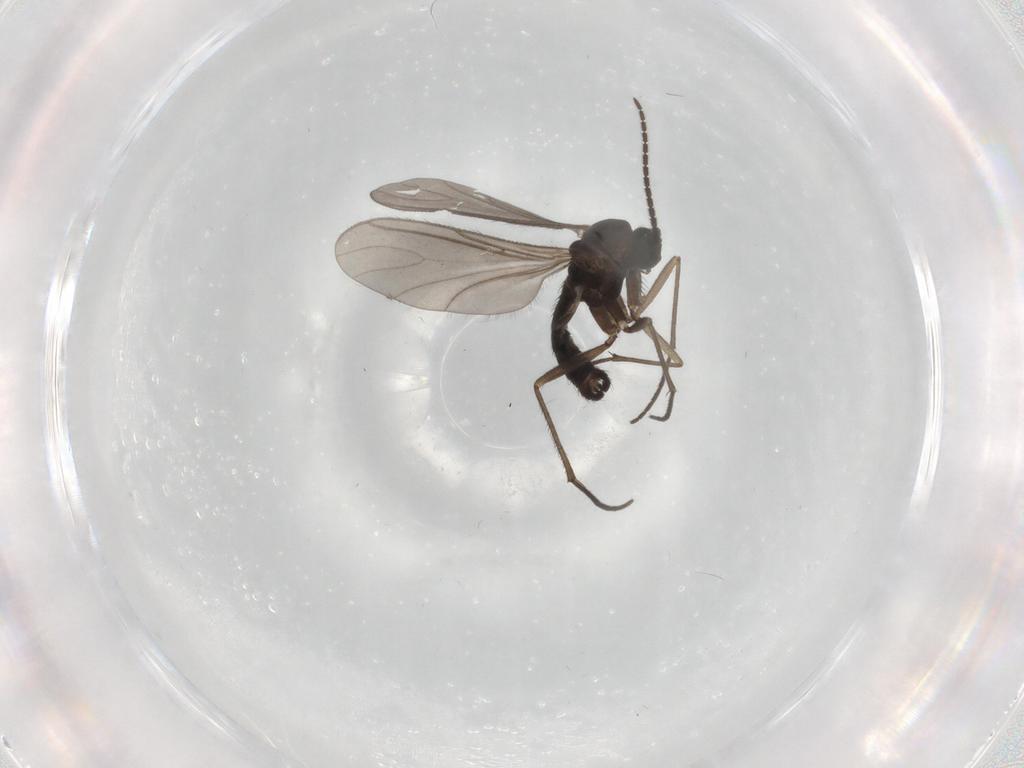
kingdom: Animalia
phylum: Arthropoda
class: Insecta
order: Diptera
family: Sciaridae
